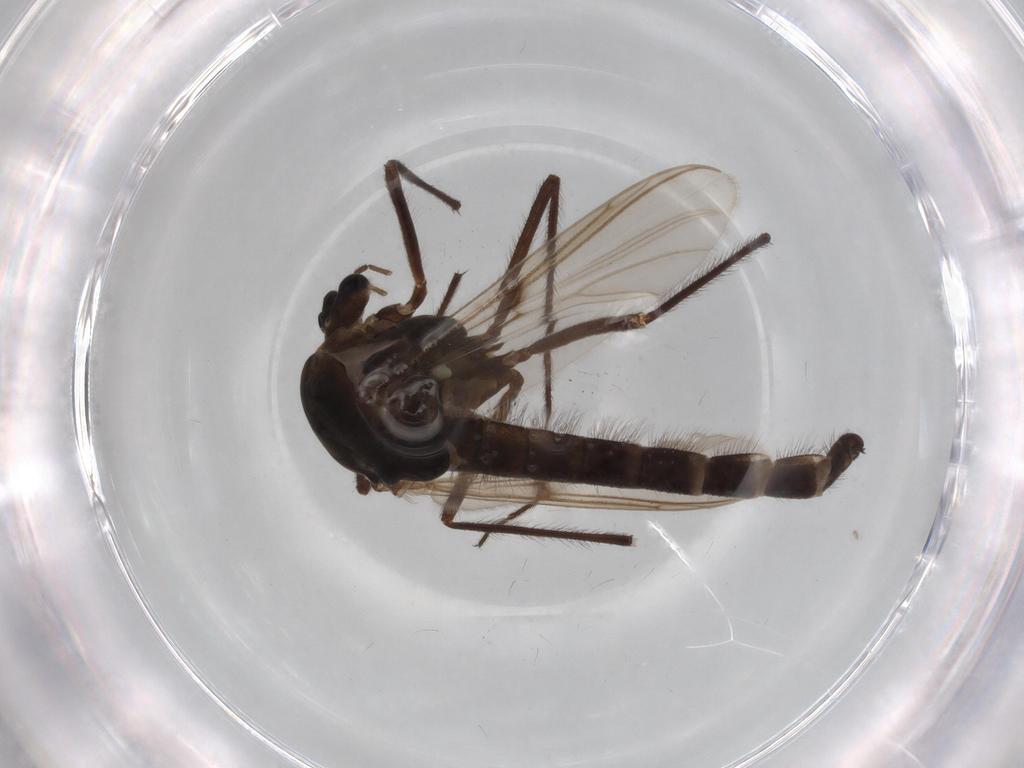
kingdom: Animalia
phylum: Arthropoda
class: Insecta
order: Diptera
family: Chironomidae
